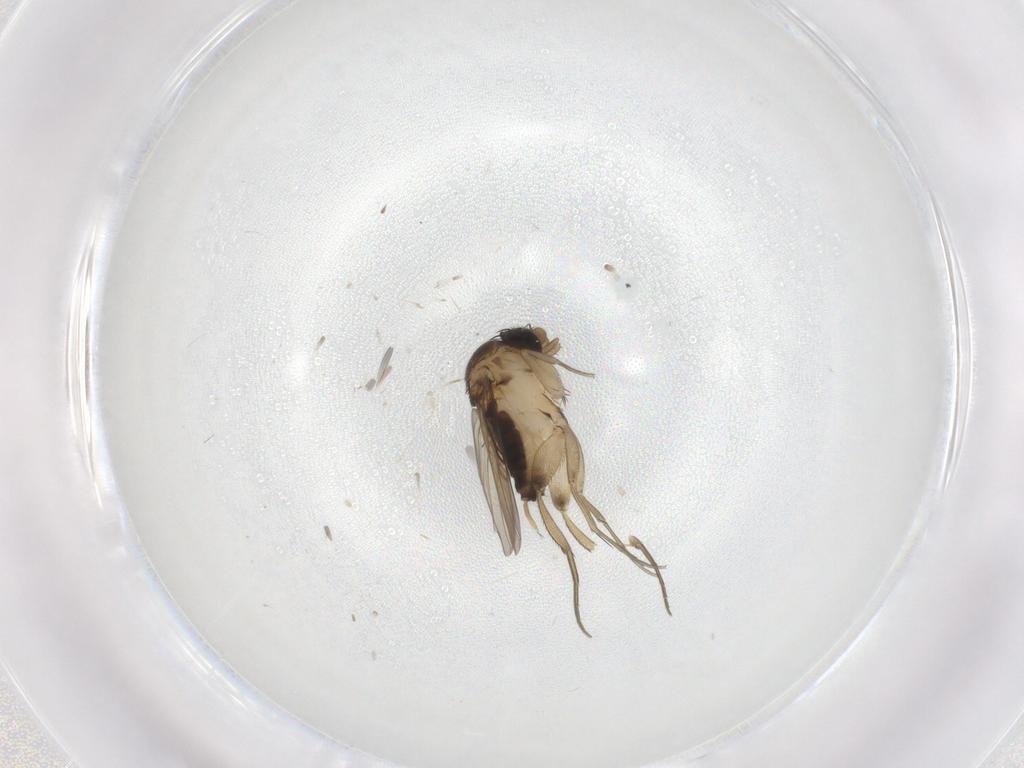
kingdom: Animalia
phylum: Arthropoda
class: Insecta
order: Diptera
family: Phoridae
